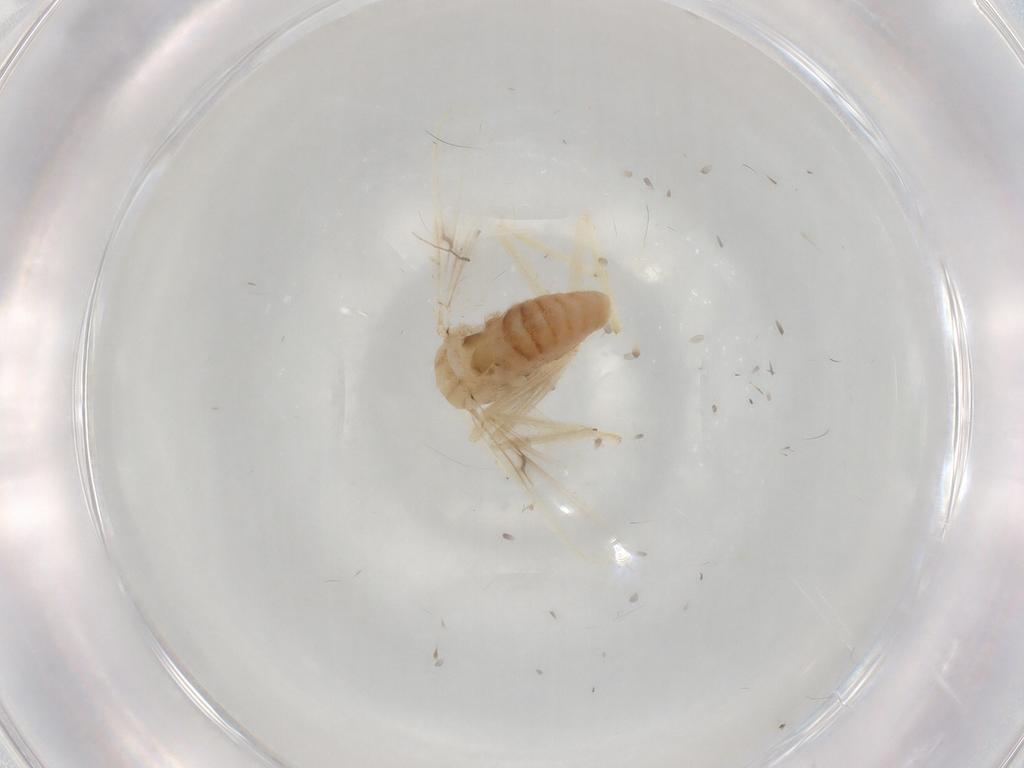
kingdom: Animalia
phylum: Arthropoda
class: Insecta
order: Diptera
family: Chironomidae
